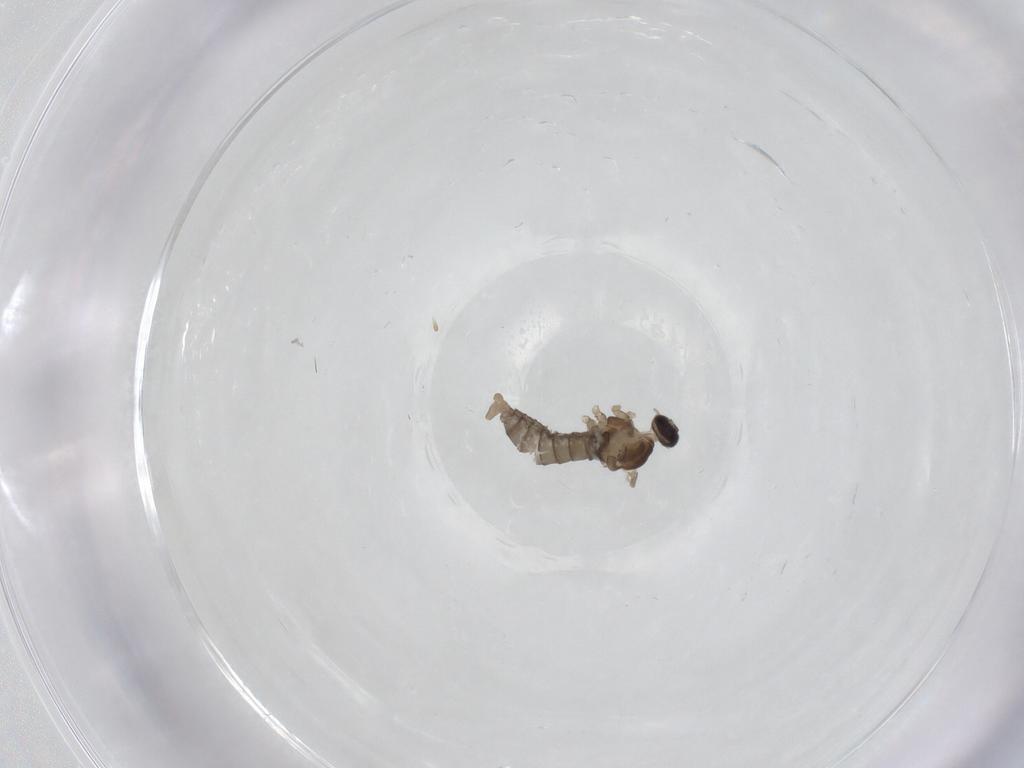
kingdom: Animalia
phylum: Arthropoda
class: Insecta
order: Diptera
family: Cecidomyiidae
